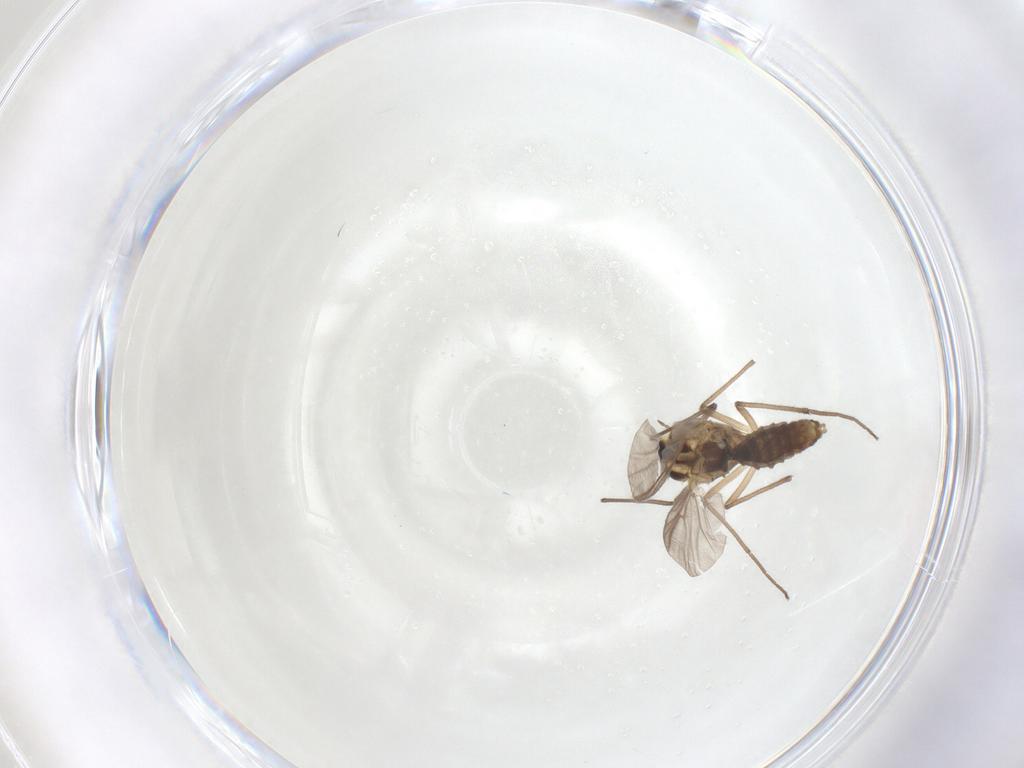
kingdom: Animalia
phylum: Arthropoda
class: Insecta
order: Diptera
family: Chironomidae
